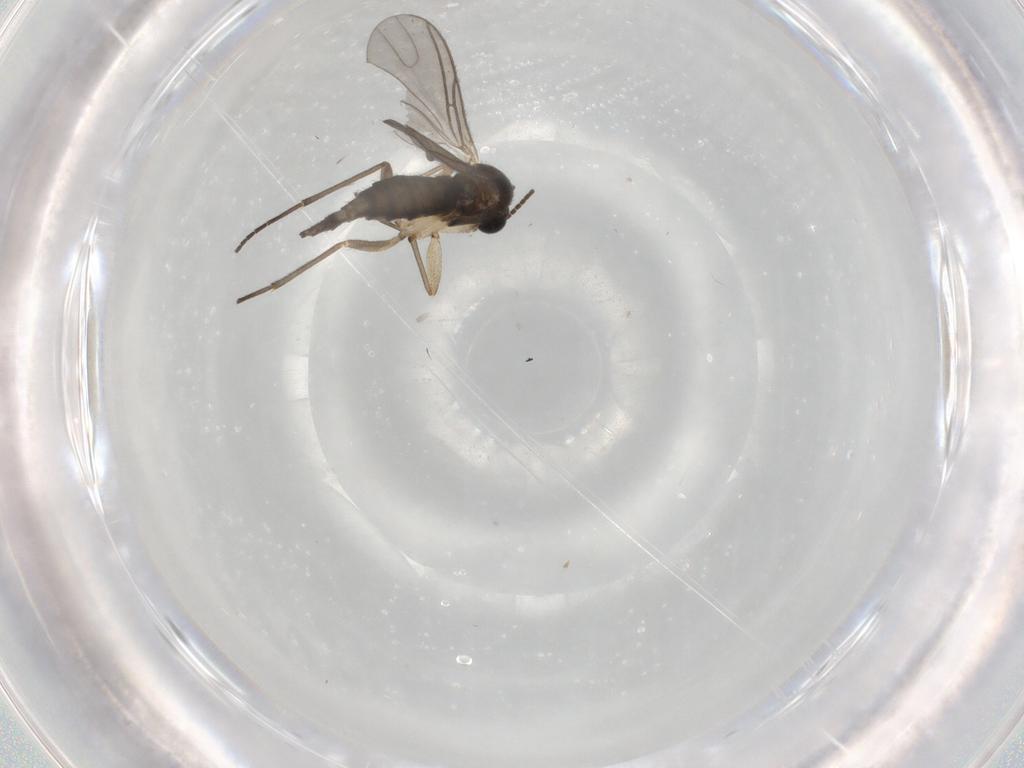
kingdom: Animalia
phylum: Arthropoda
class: Insecta
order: Diptera
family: Sciaridae
